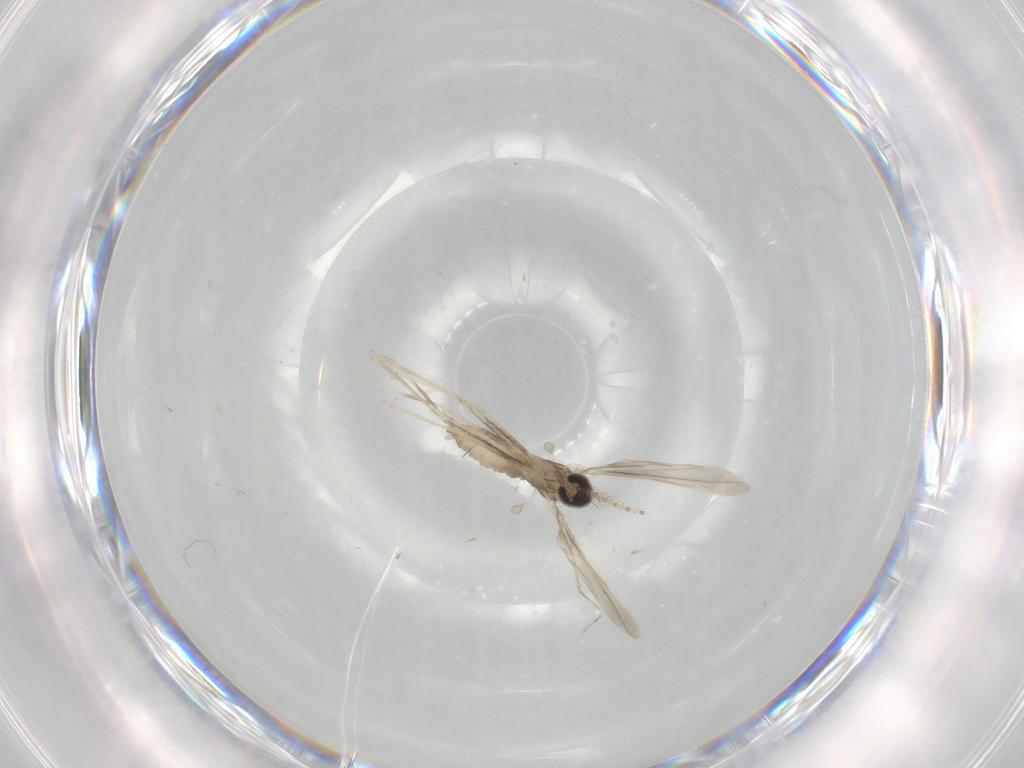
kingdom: Animalia
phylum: Arthropoda
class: Insecta
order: Diptera
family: Cecidomyiidae
